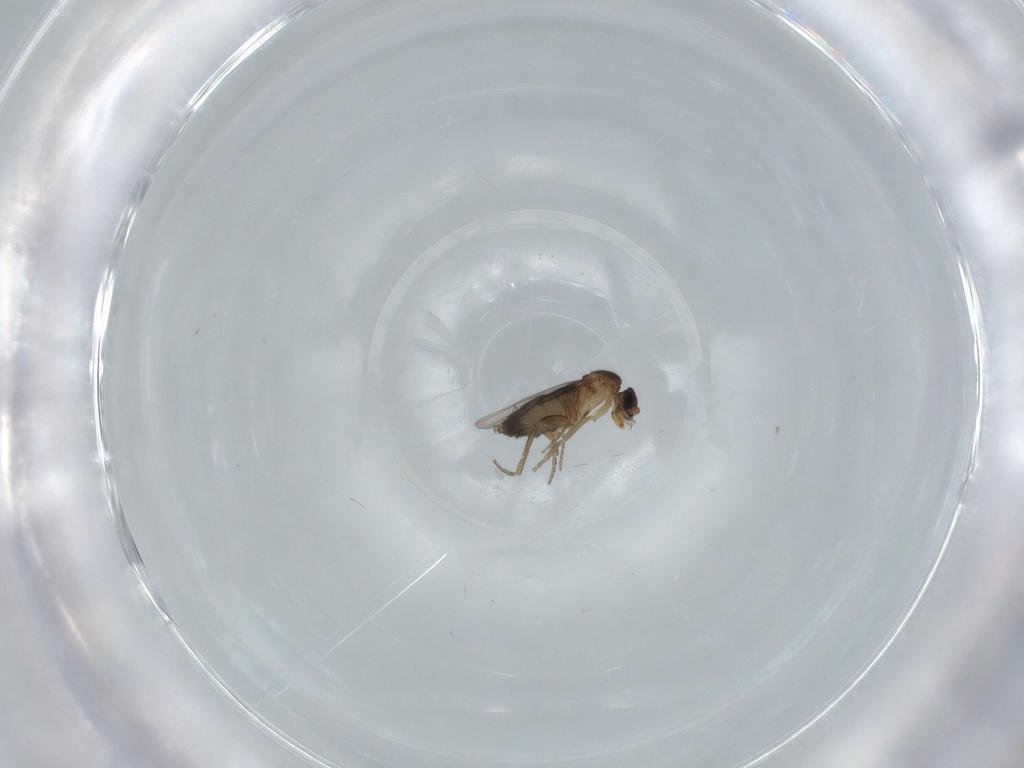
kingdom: Animalia
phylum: Arthropoda
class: Insecta
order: Diptera
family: Phoridae
